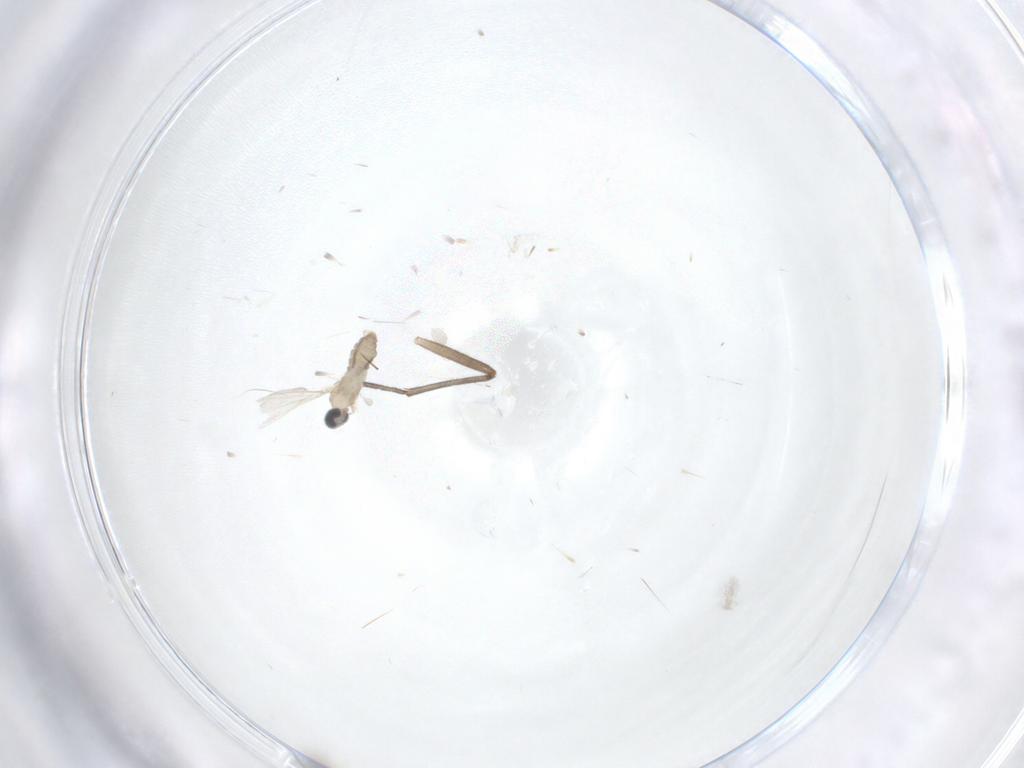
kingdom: Animalia
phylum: Arthropoda
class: Insecta
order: Diptera
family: Cecidomyiidae
